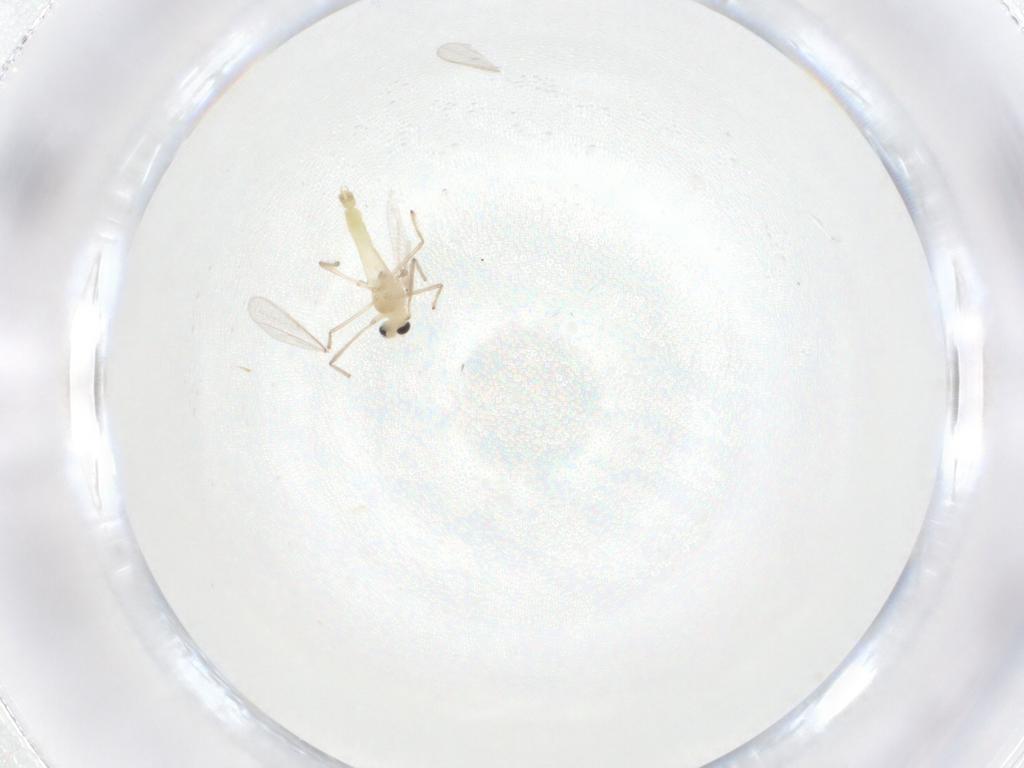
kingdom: Animalia
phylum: Arthropoda
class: Insecta
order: Diptera
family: Chironomidae
